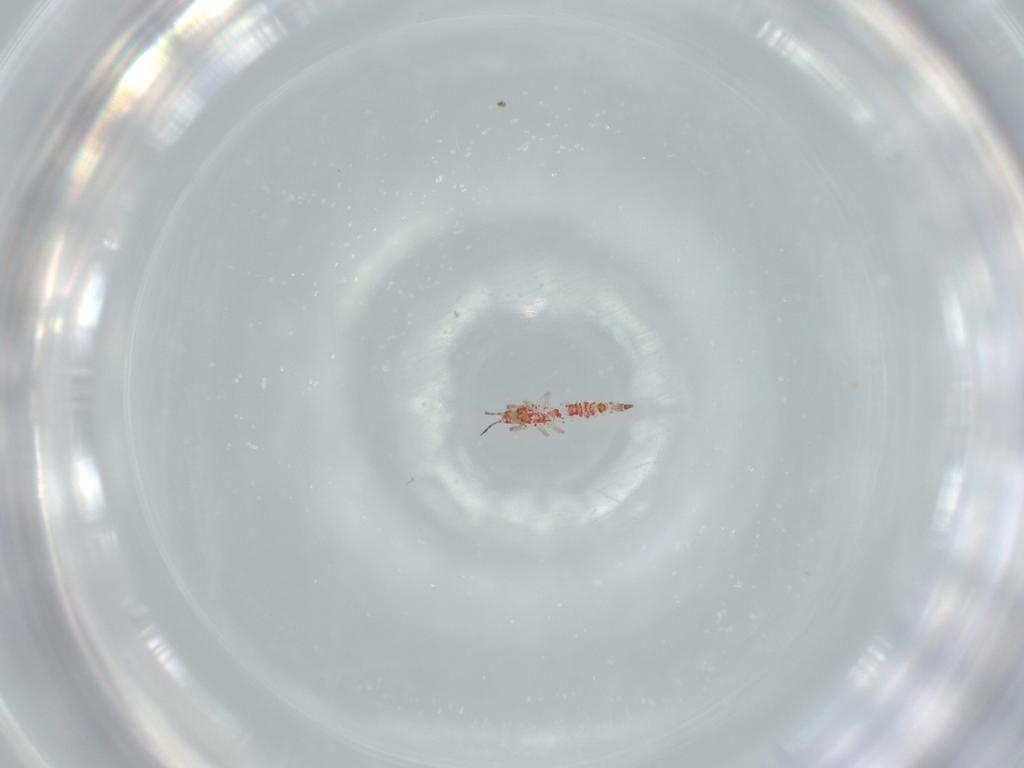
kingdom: Animalia
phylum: Arthropoda
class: Insecta
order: Thysanoptera
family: Phlaeothripidae
